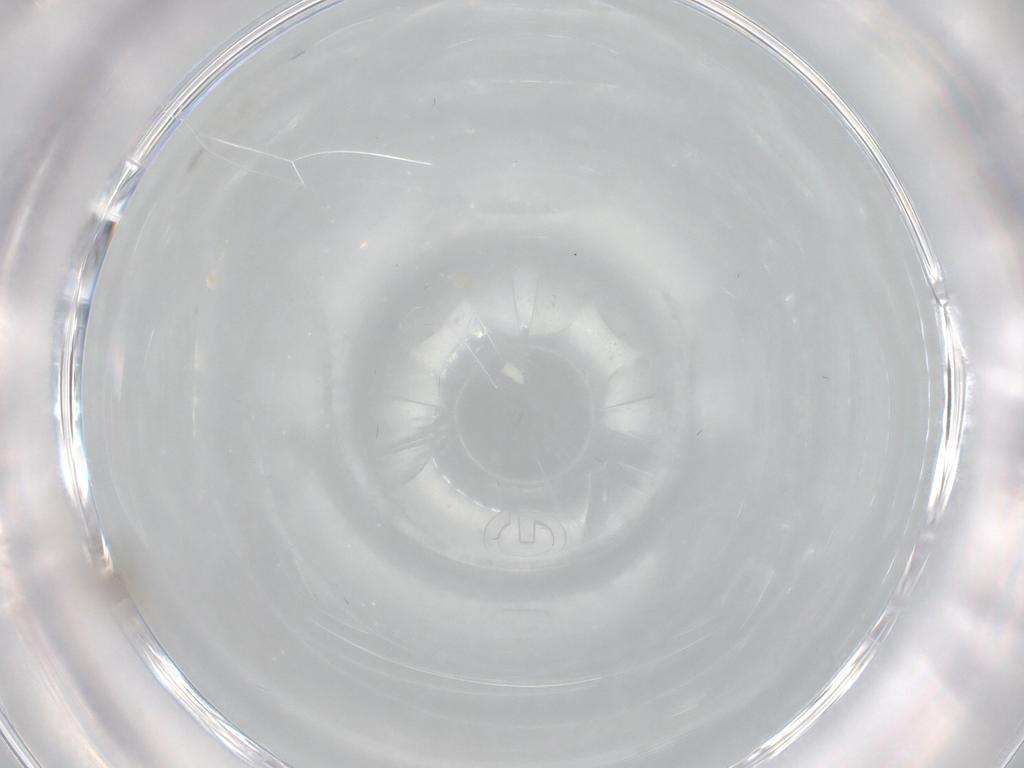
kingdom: Animalia
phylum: Arthropoda
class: Insecta
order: Diptera
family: Cecidomyiidae
